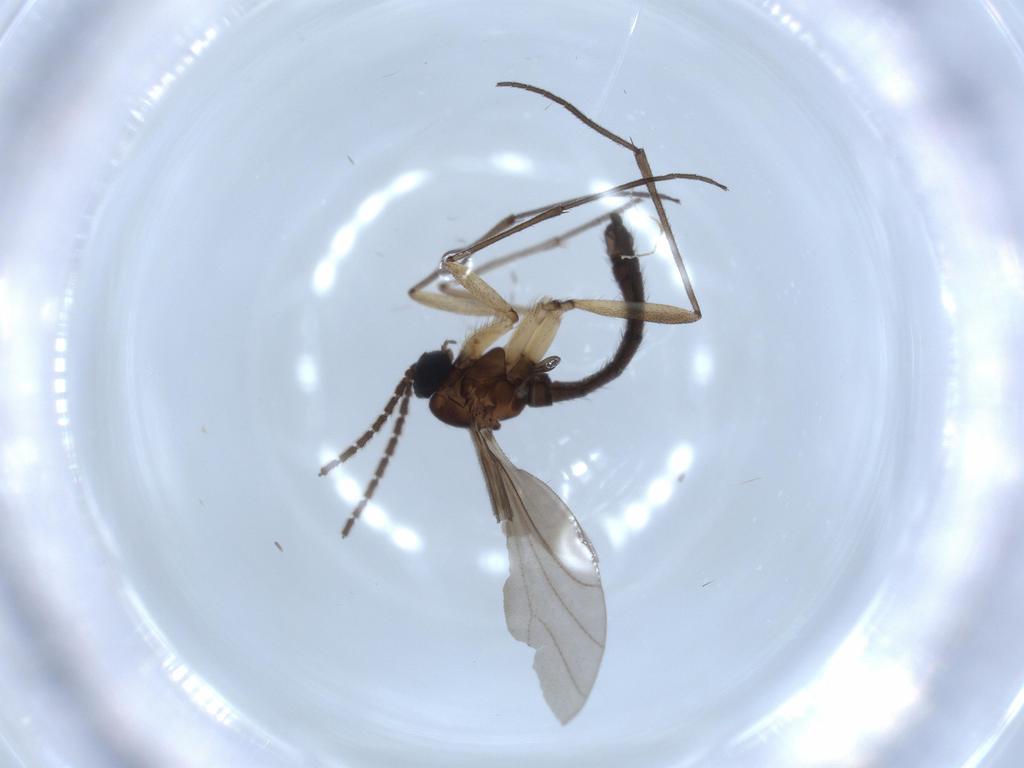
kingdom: Animalia
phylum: Arthropoda
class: Insecta
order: Diptera
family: Sciaridae
